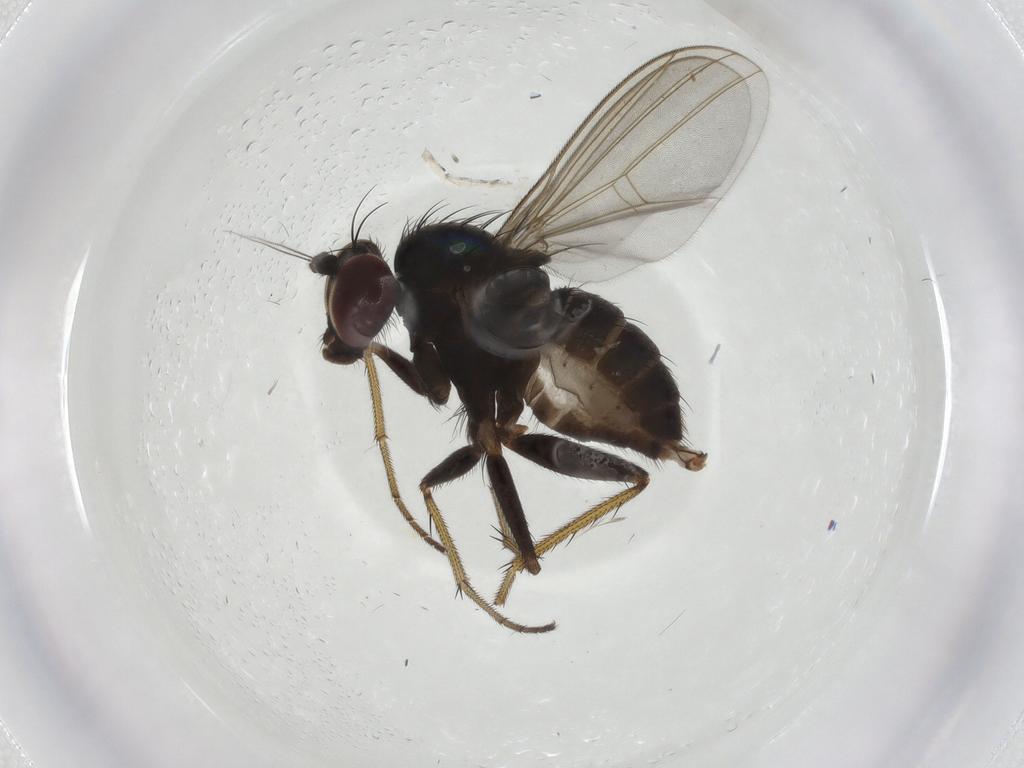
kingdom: Animalia
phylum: Arthropoda
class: Insecta
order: Diptera
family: Dolichopodidae
